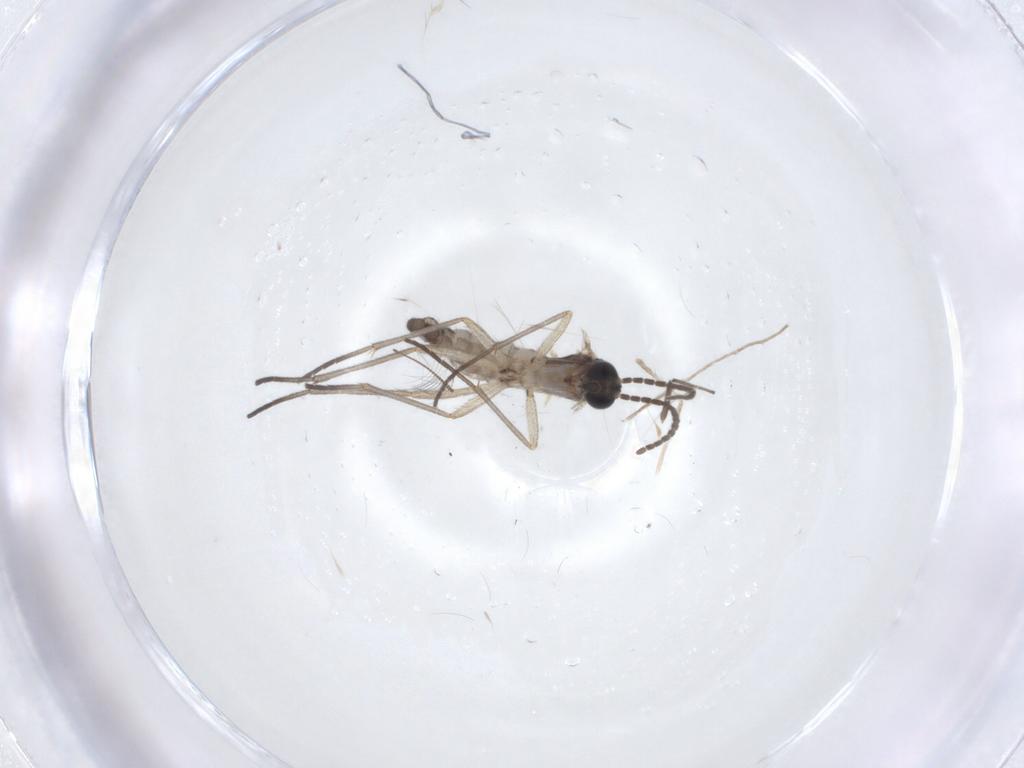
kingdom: Animalia
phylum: Arthropoda
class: Insecta
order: Diptera
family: Sciaridae
